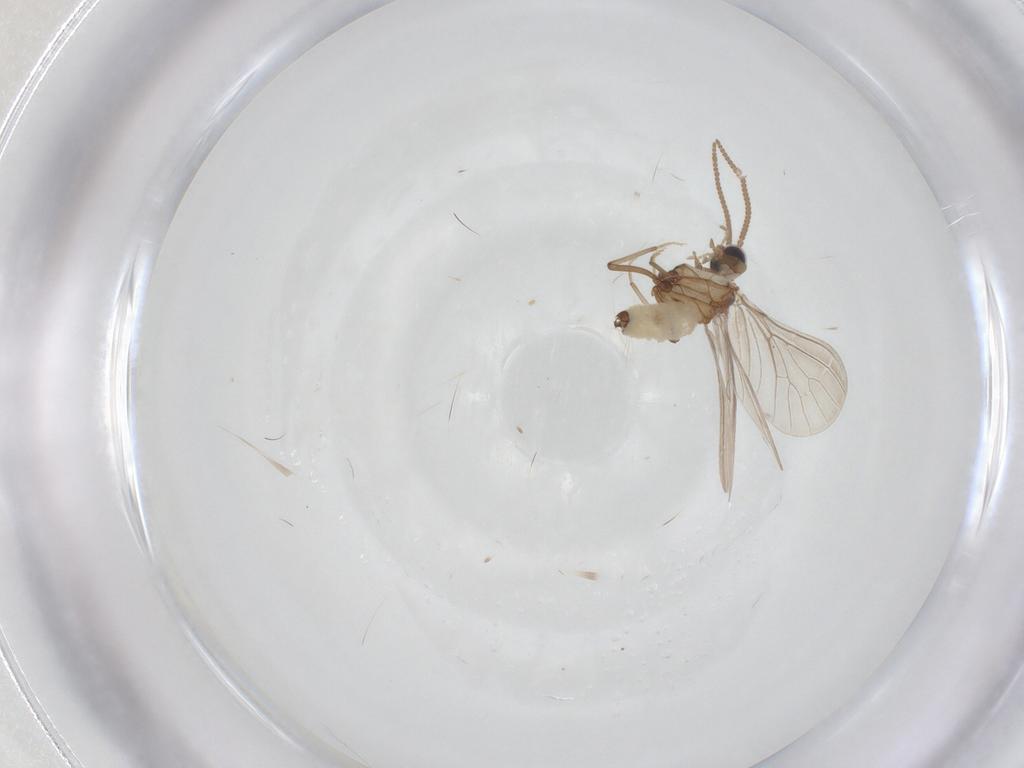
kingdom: Animalia
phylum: Arthropoda
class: Insecta
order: Neuroptera
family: Coniopterygidae
